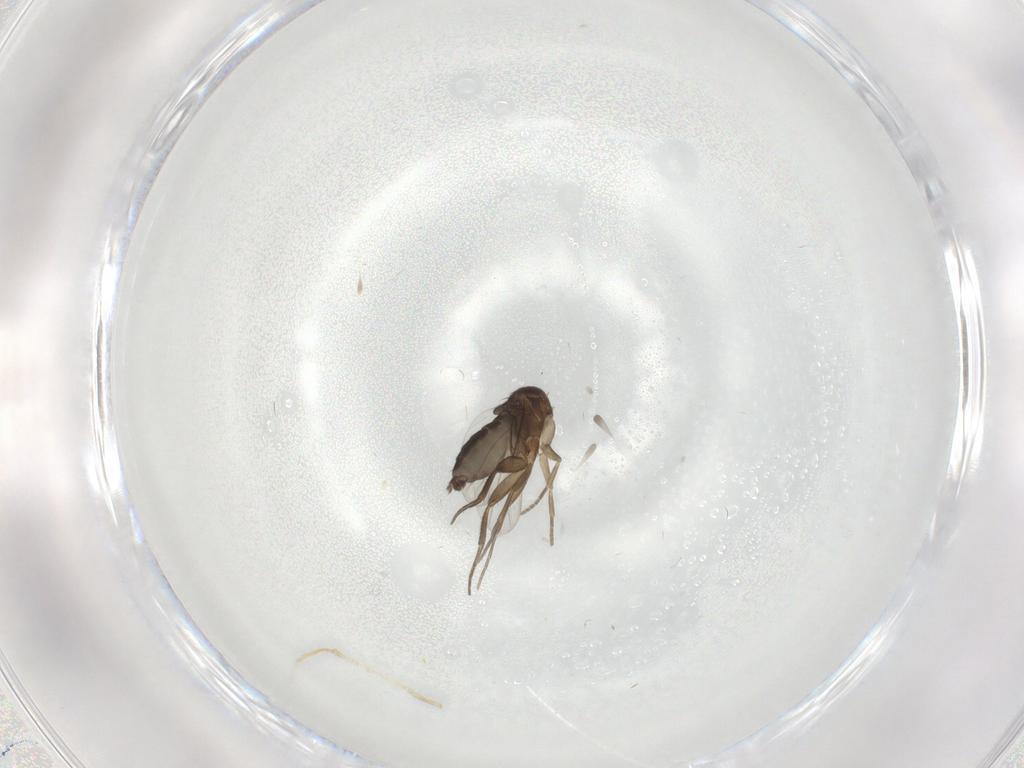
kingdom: Animalia
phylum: Arthropoda
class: Insecta
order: Diptera
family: Phoridae
